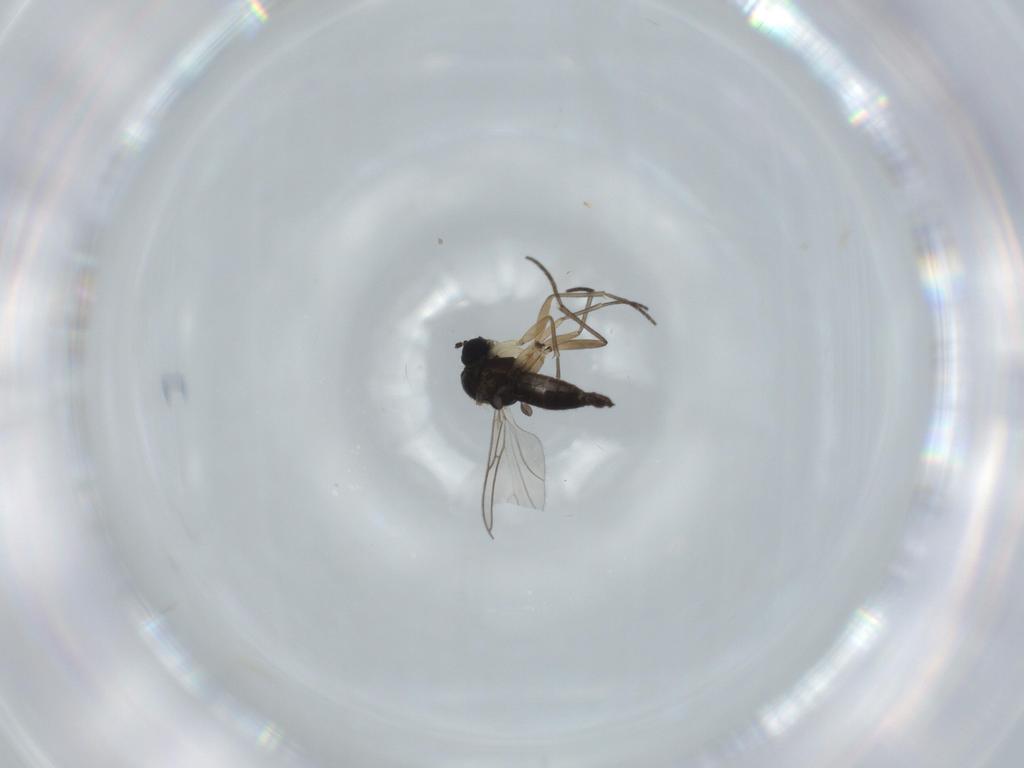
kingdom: Animalia
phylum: Arthropoda
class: Insecta
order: Diptera
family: Sciaridae
